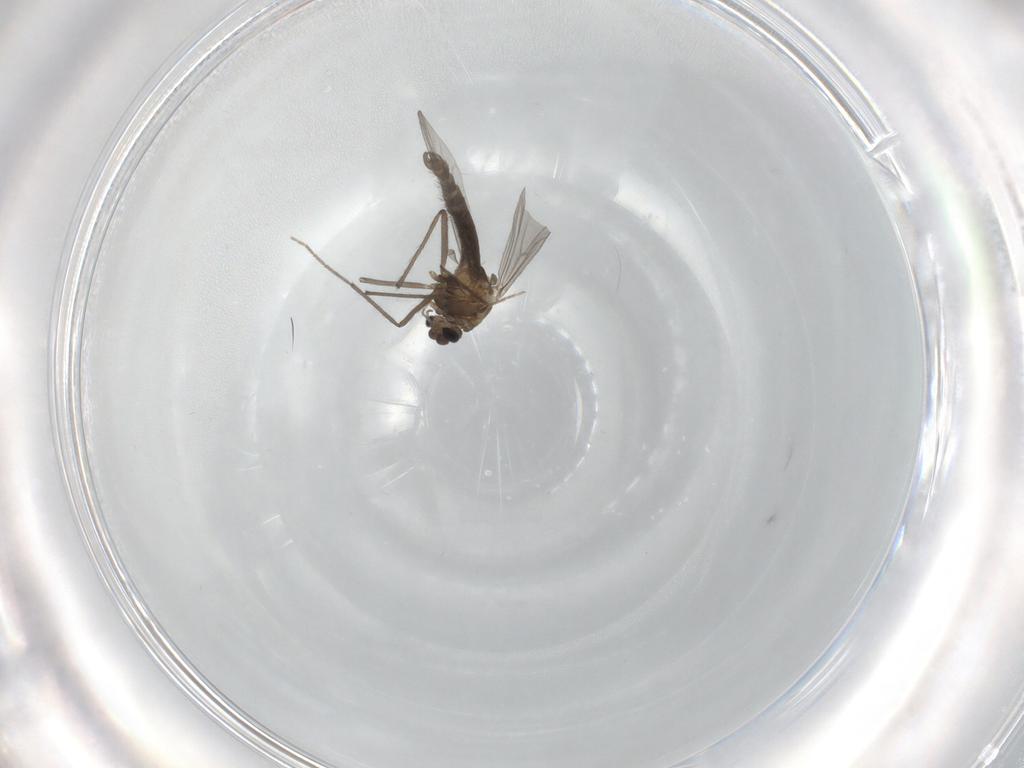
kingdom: Animalia
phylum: Arthropoda
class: Insecta
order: Diptera
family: Chironomidae
